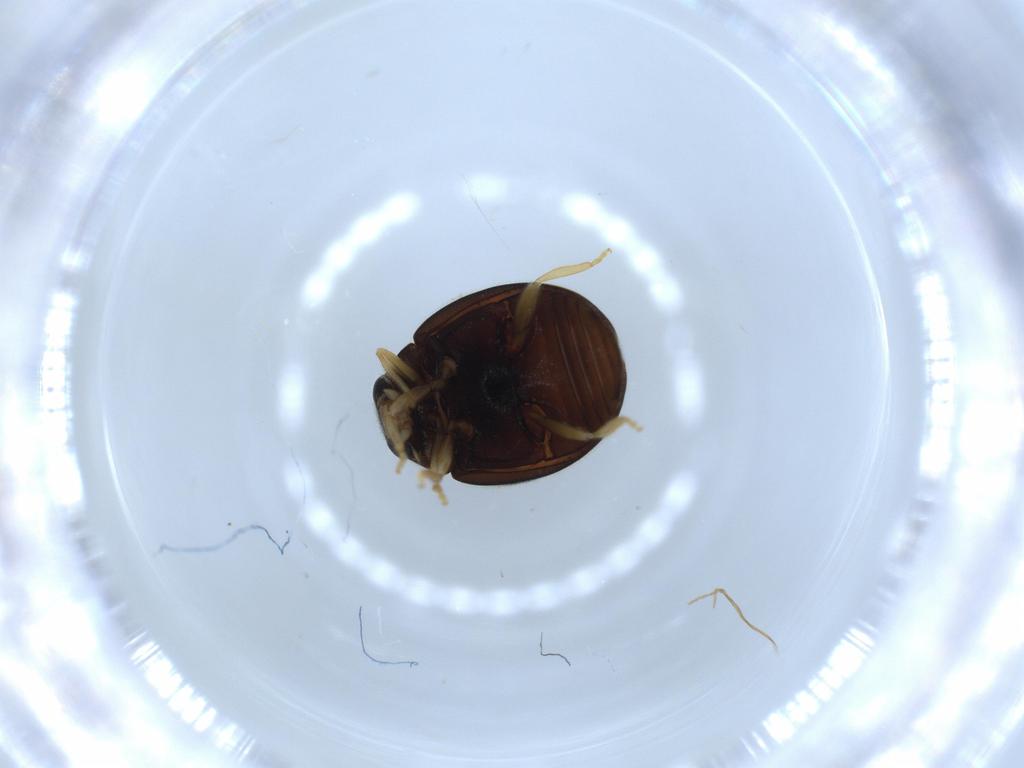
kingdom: Animalia
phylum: Arthropoda
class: Insecta
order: Coleoptera
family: Coccinellidae
